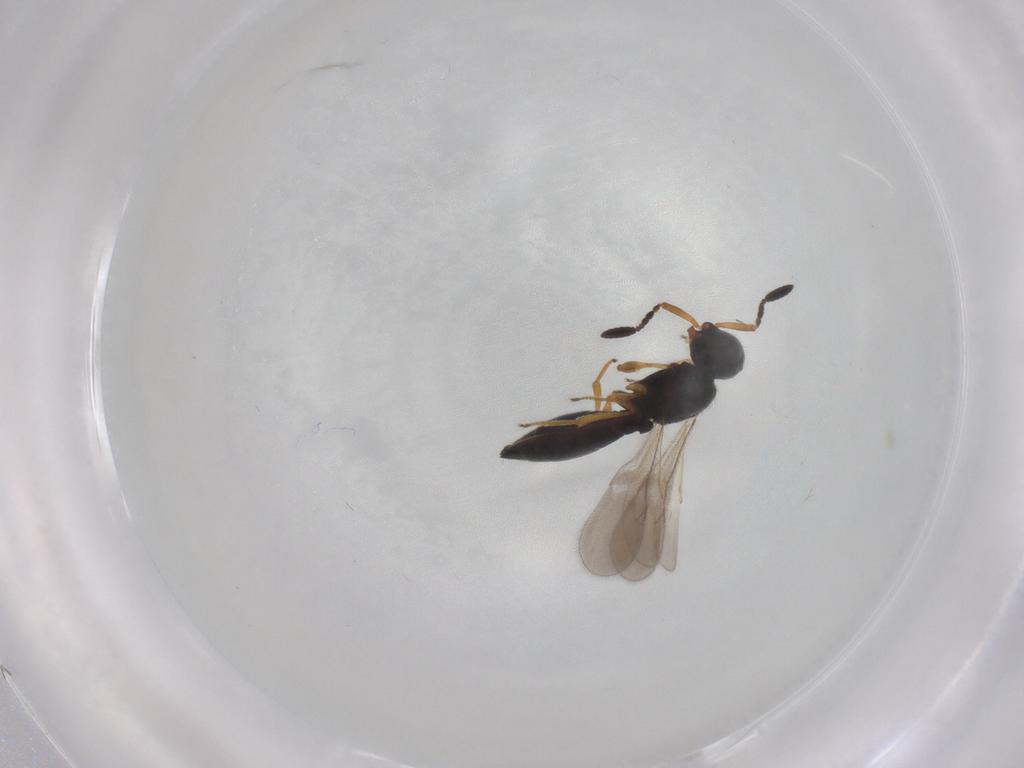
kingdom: Animalia
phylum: Arthropoda
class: Insecta
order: Hymenoptera
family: Scelionidae
